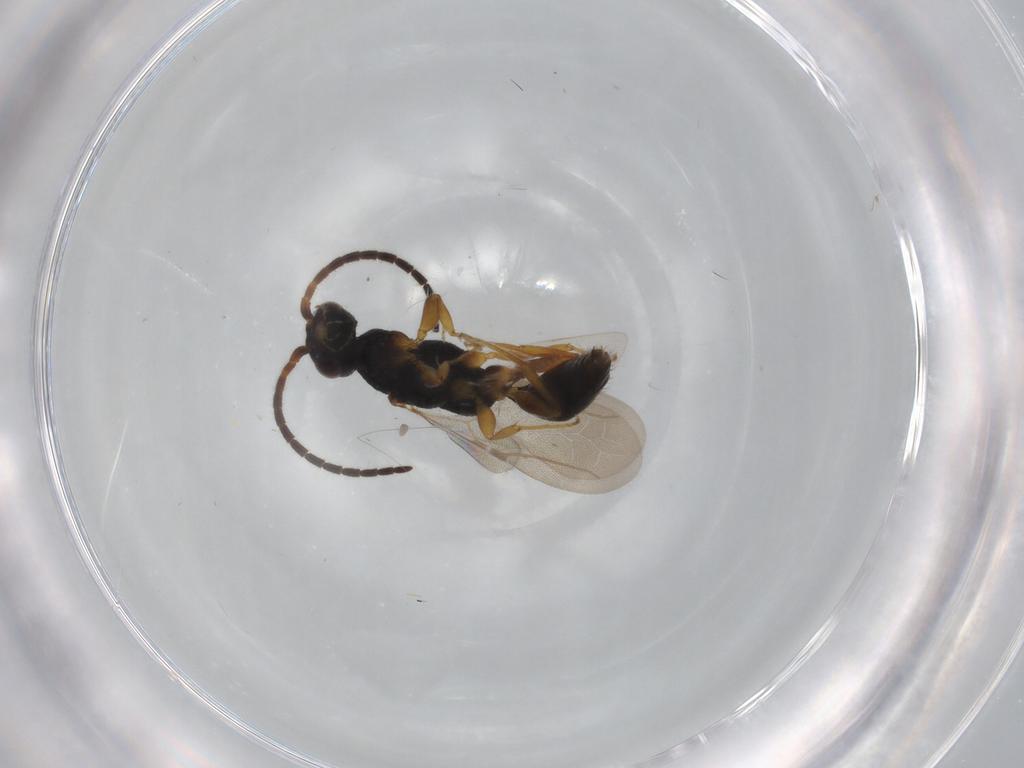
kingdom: Animalia
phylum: Arthropoda
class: Insecta
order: Hymenoptera
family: Bethylidae
